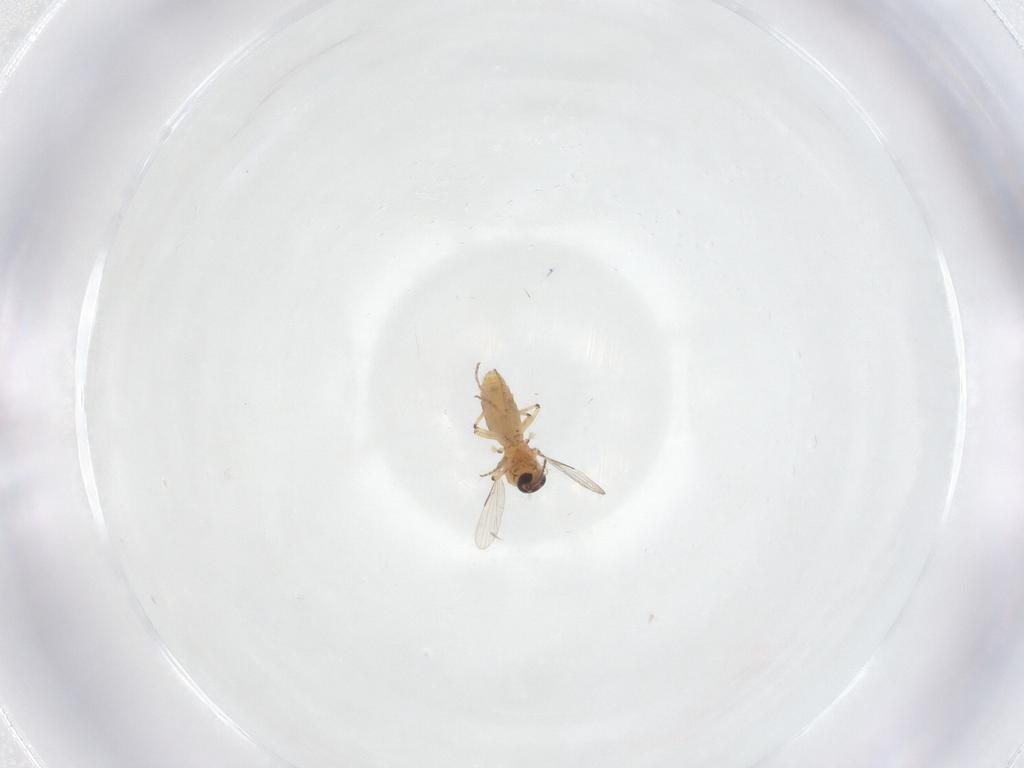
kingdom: Animalia
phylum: Arthropoda
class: Insecta
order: Diptera
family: Ceratopogonidae
